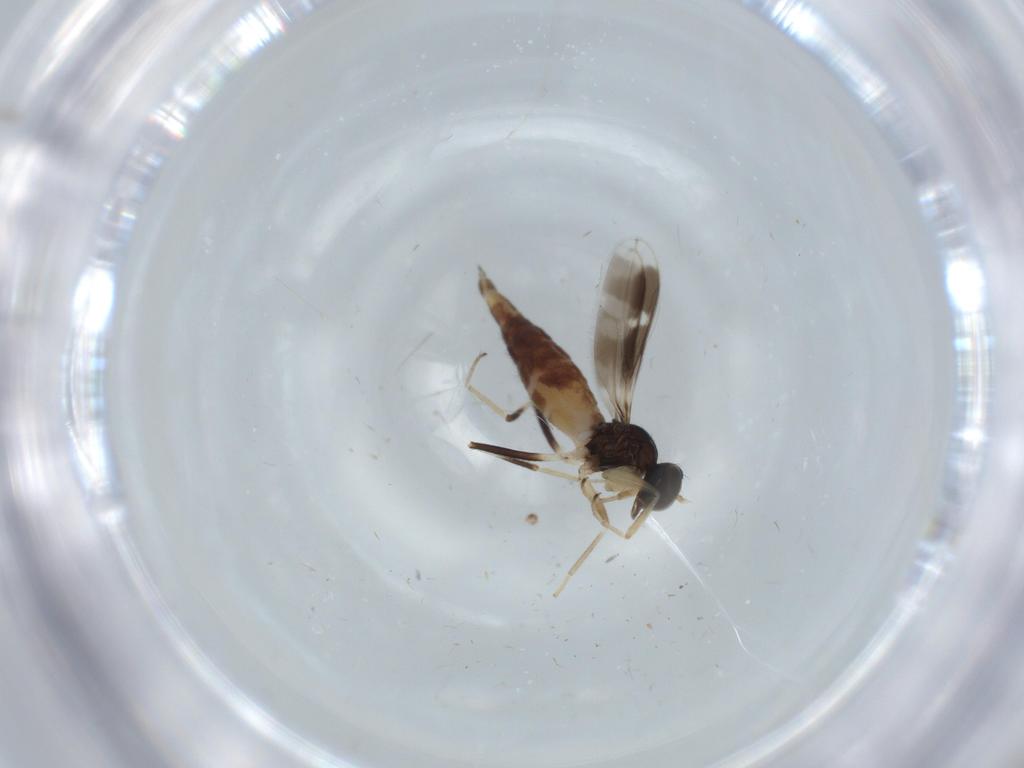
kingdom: Animalia
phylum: Arthropoda
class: Insecta
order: Diptera
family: Hybotidae
